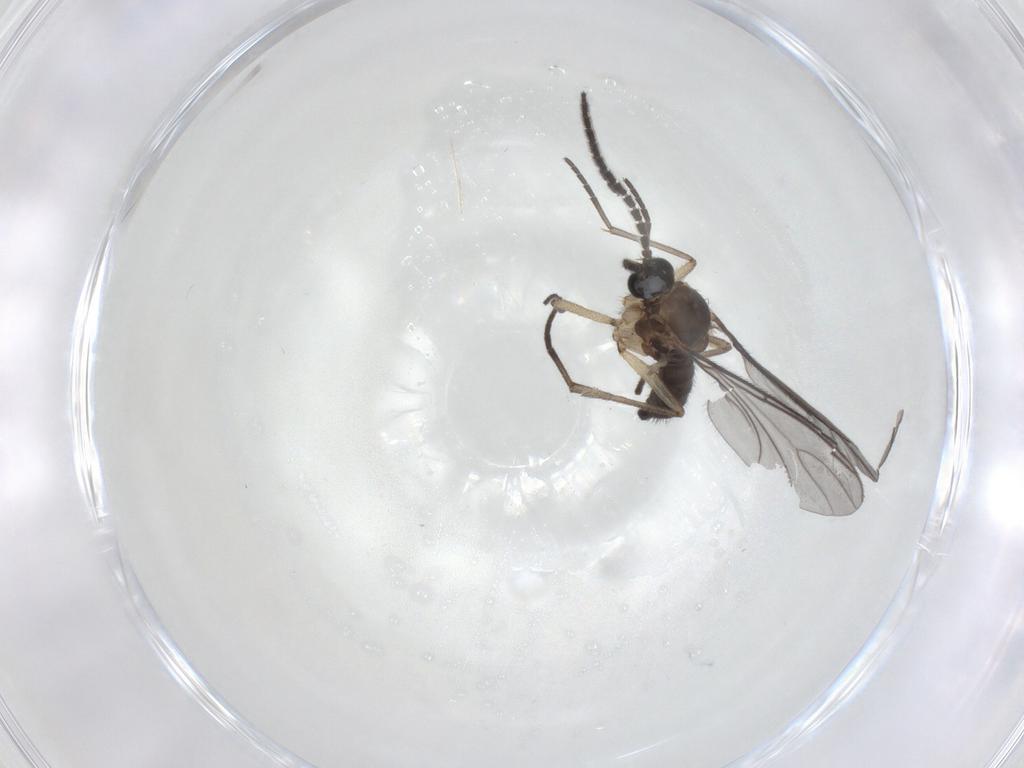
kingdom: Animalia
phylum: Arthropoda
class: Insecta
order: Diptera
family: Sciaridae
